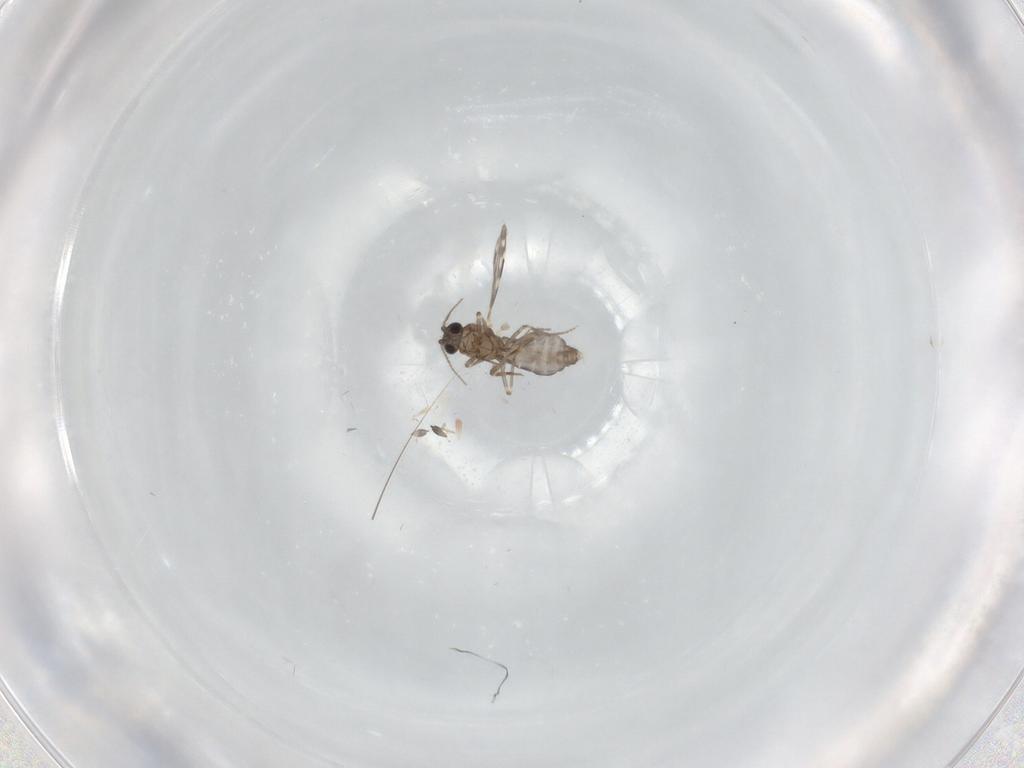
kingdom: Animalia
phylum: Arthropoda
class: Insecta
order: Diptera
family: Ceratopogonidae
